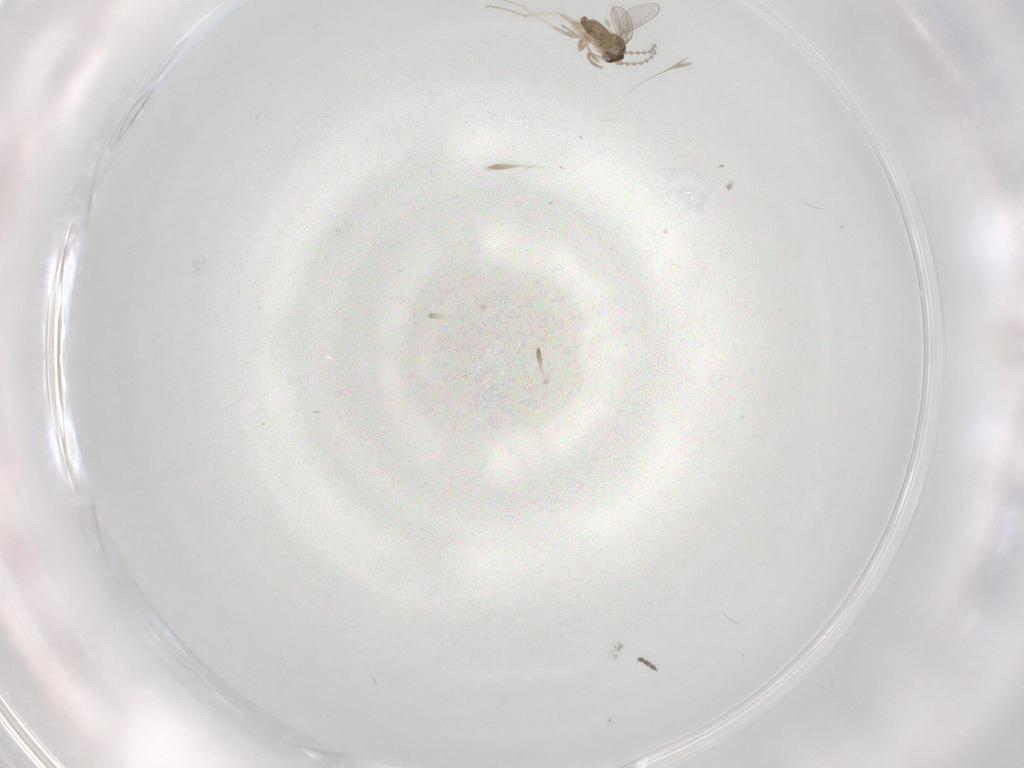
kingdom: Animalia
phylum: Arthropoda
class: Insecta
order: Diptera
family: Cecidomyiidae
